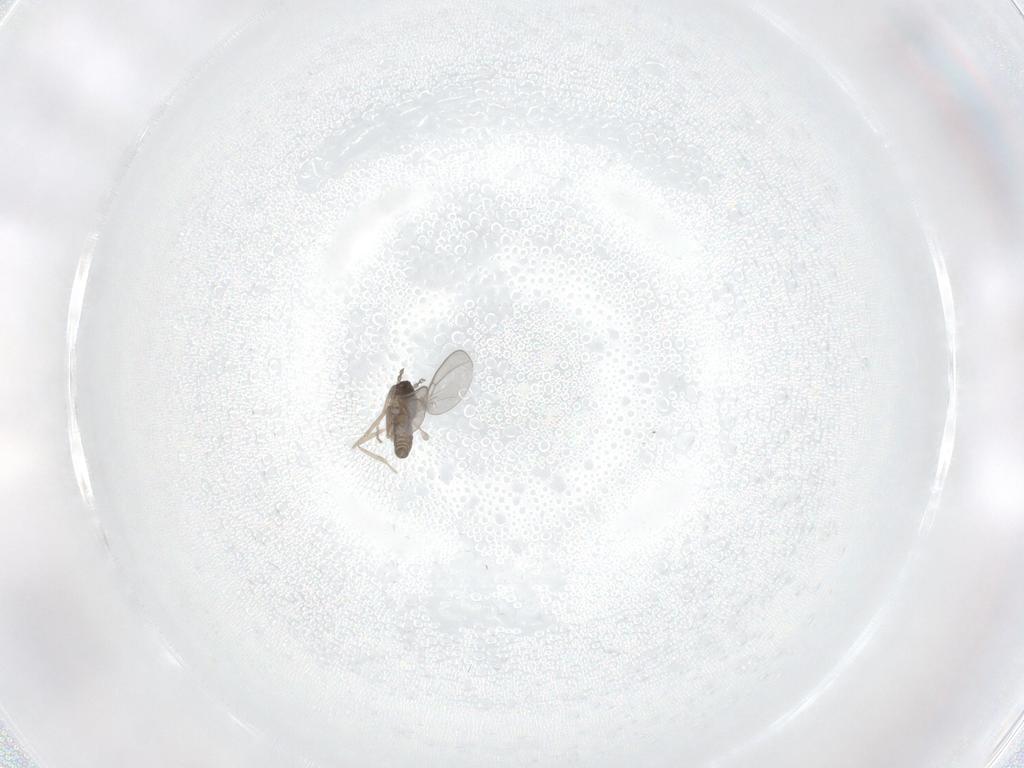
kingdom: Animalia
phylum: Arthropoda
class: Insecta
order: Diptera
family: Cecidomyiidae
